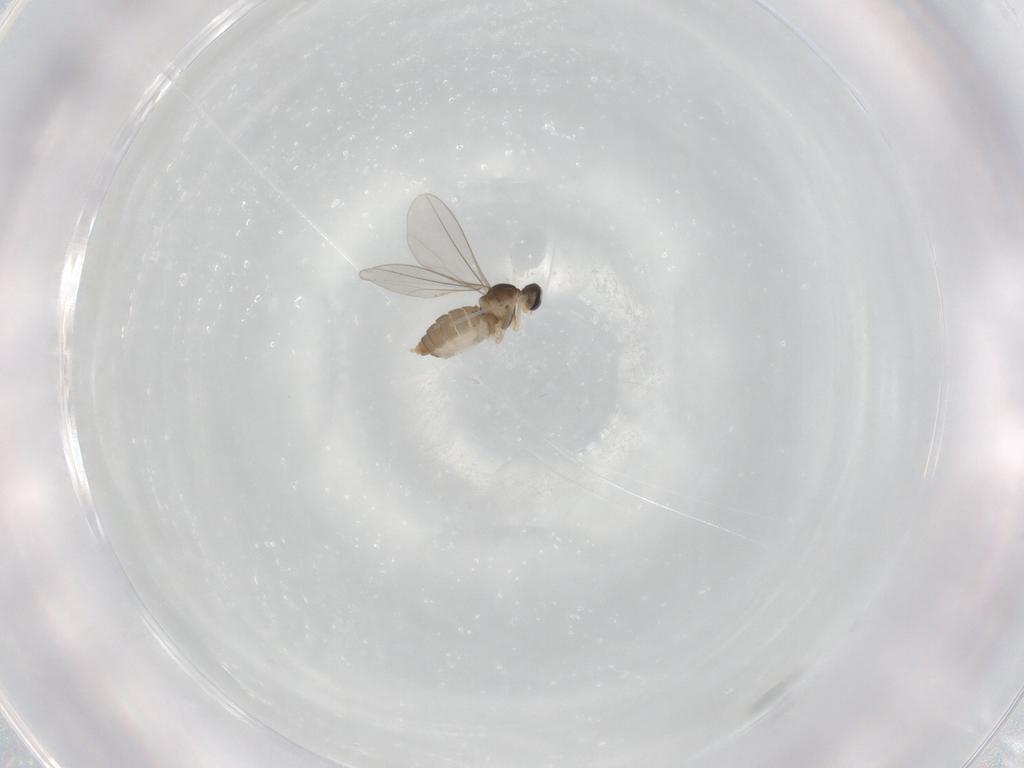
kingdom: Animalia
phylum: Arthropoda
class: Insecta
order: Diptera
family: Cecidomyiidae
